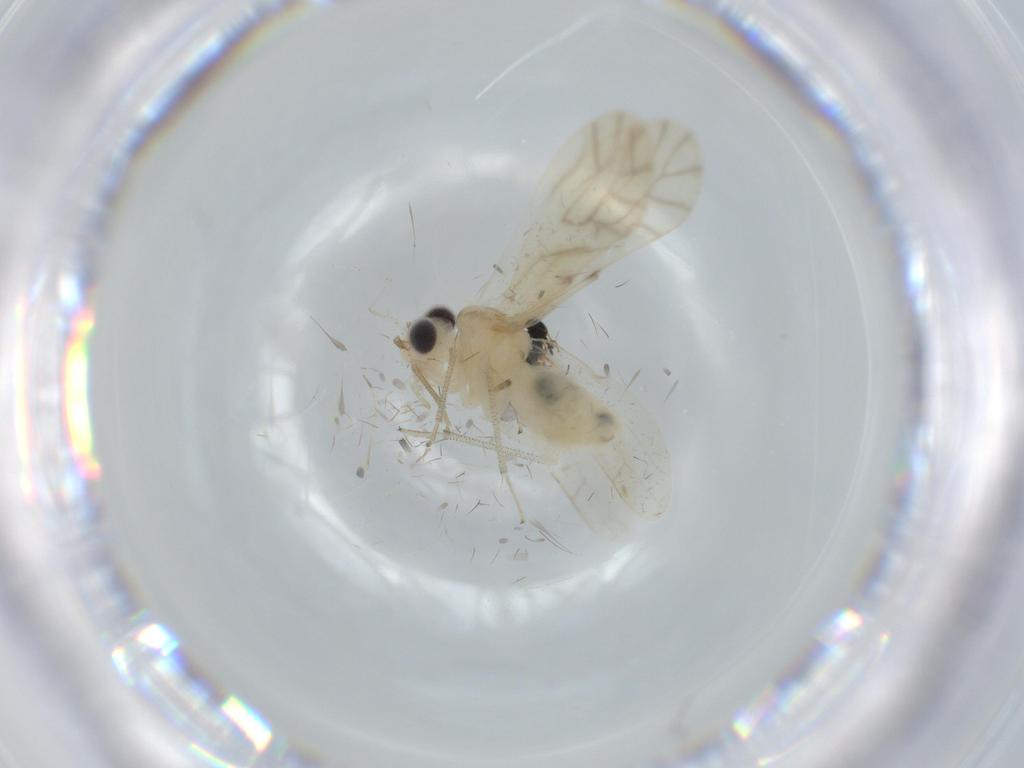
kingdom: Animalia
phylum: Arthropoda
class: Insecta
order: Psocodea
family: Caeciliusidae
